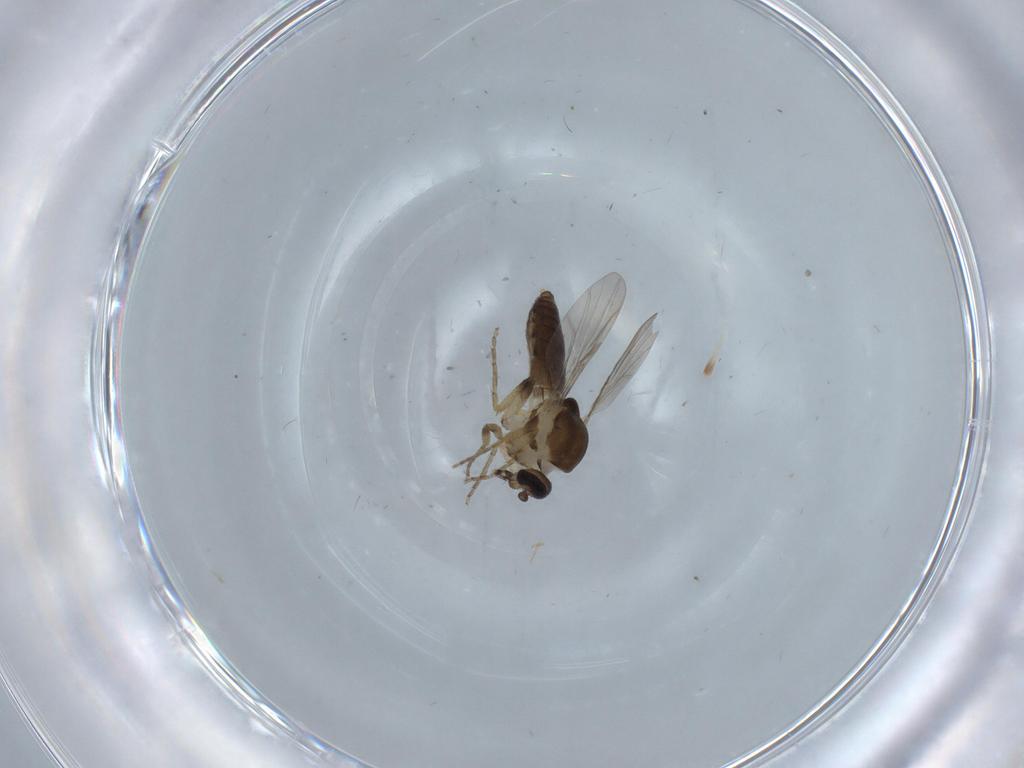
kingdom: Animalia
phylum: Arthropoda
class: Insecta
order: Diptera
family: Ceratopogonidae
